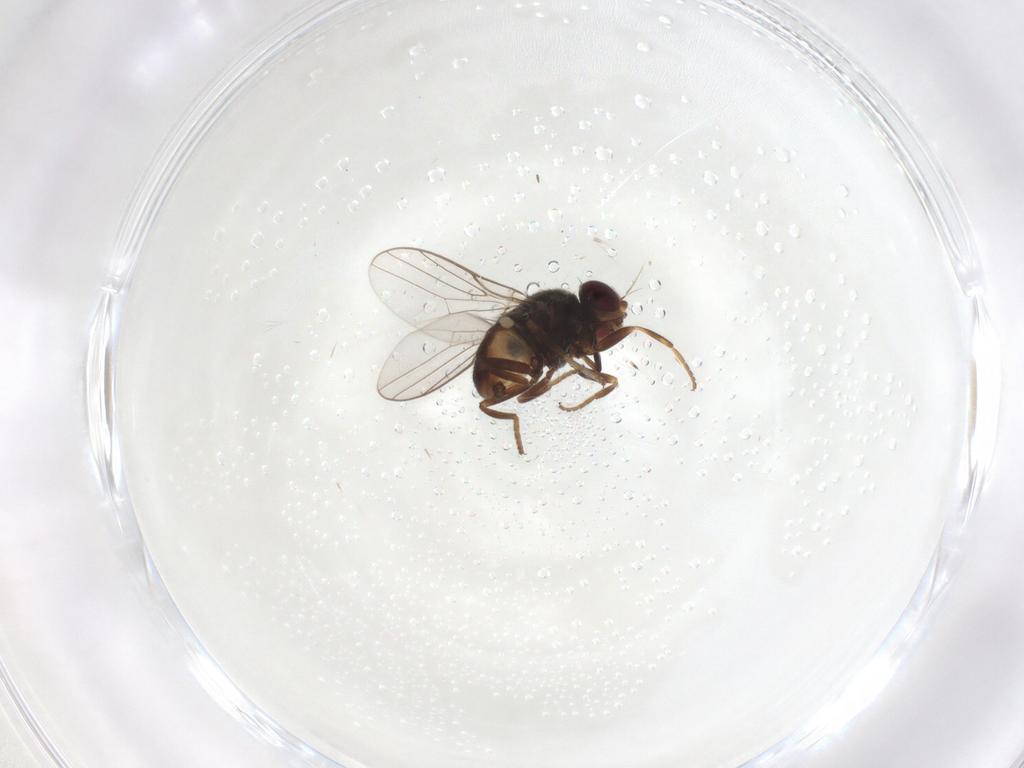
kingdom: Animalia
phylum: Arthropoda
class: Insecta
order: Diptera
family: Chloropidae
